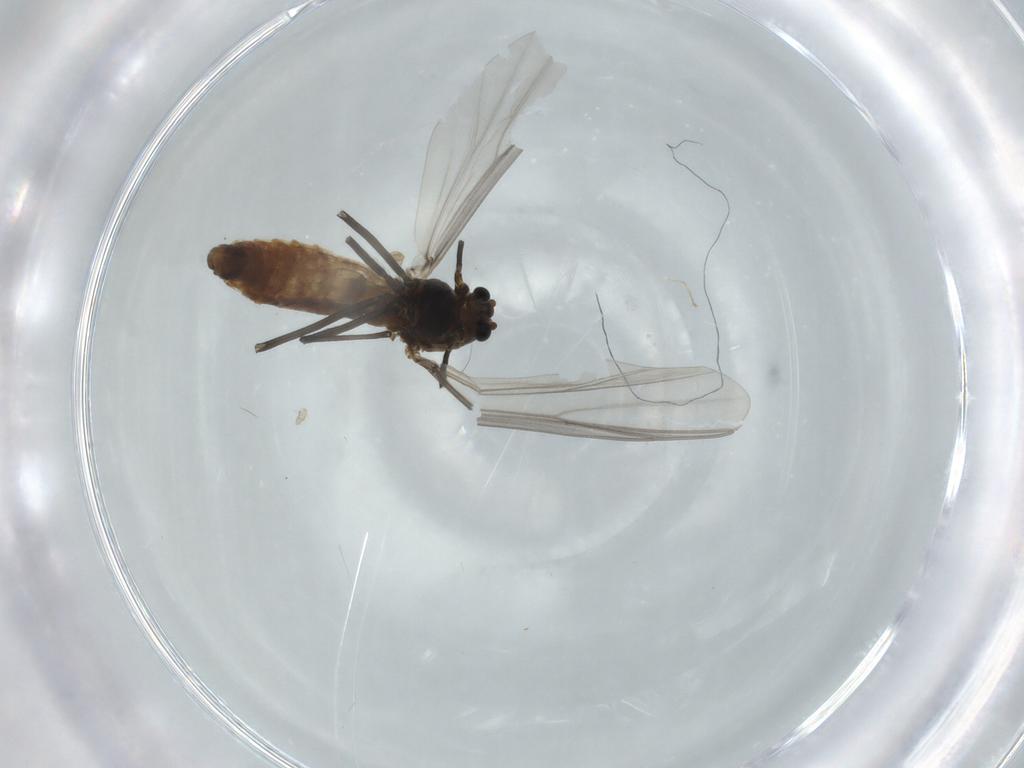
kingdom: Animalia
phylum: Arthropoda
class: Insecta
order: Diptera
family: Chironomidae
